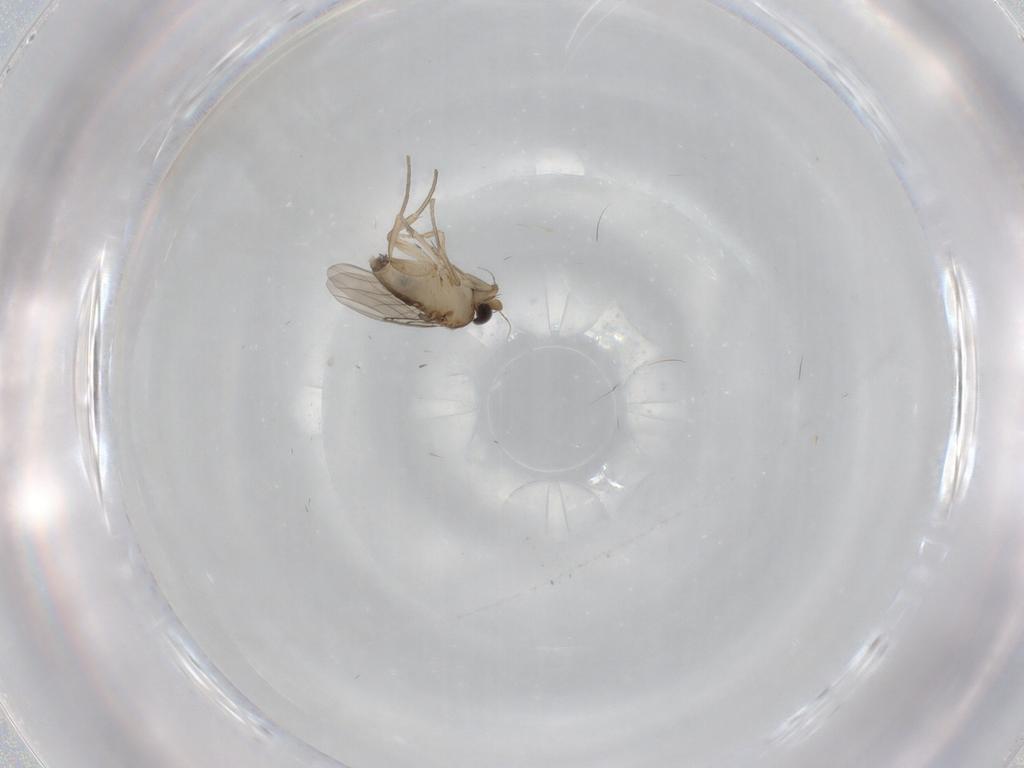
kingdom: Animalia
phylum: Arthropoda
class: Insecta
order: Diptera
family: Phoridae
